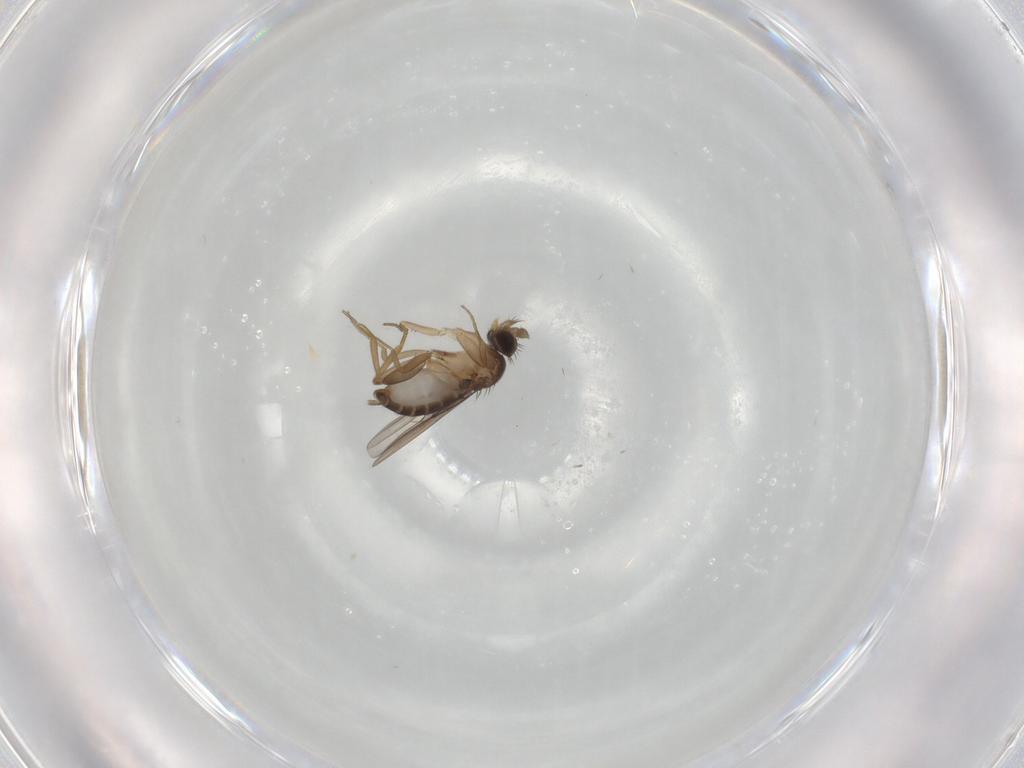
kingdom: Animalia
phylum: Arthropoda
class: Insecta
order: Diptera
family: Phoridae
